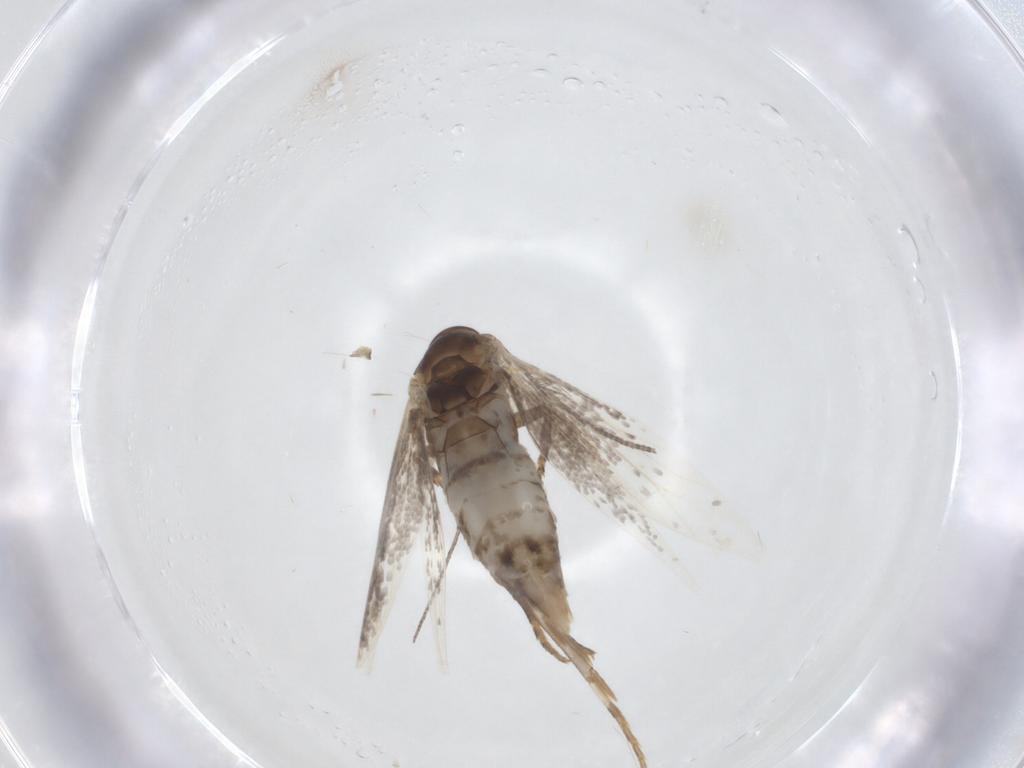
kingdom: Animalia
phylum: Arthropoda
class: Insecta
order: Lepidoptera
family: Elachistidae
